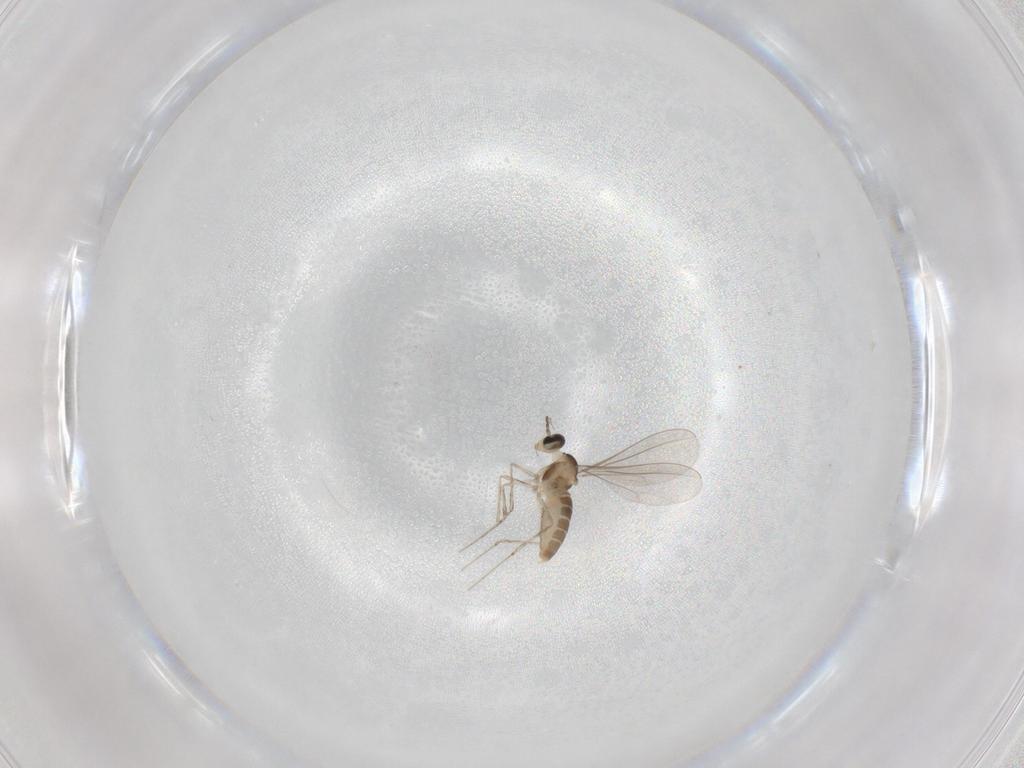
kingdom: Animalia
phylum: Arthropoda
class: Insecta
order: Diptera
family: Cecidomyiidae
